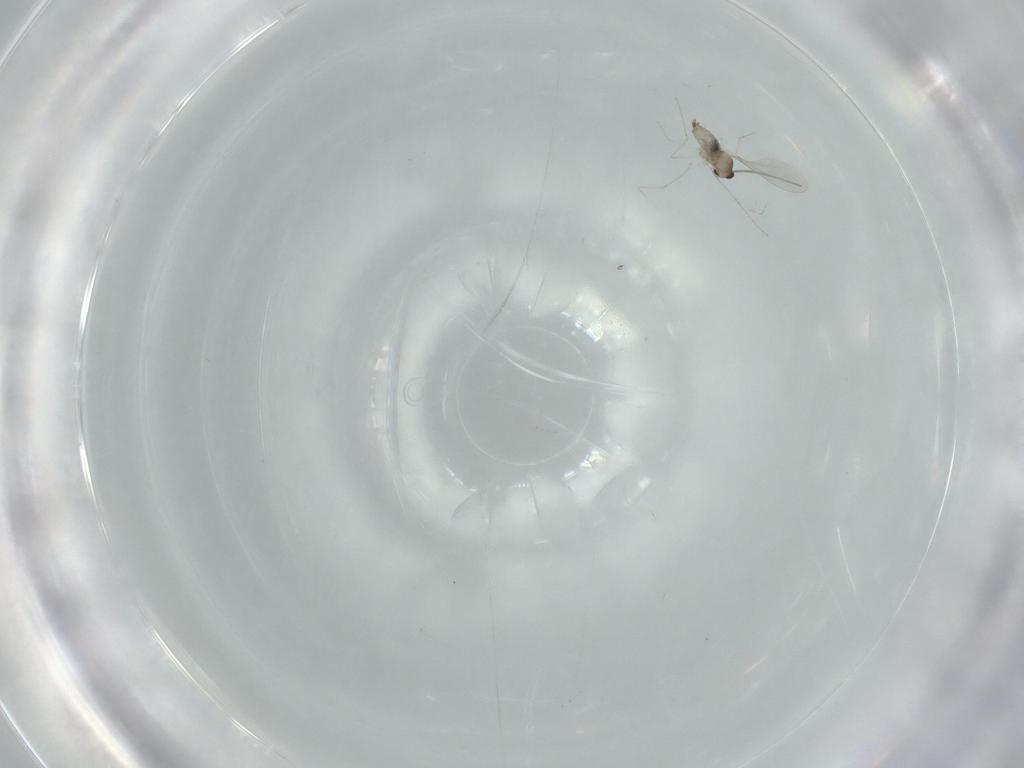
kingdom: Animalia
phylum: Arthropoda
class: Insecta
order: Diptera
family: Cecidomyiidae
